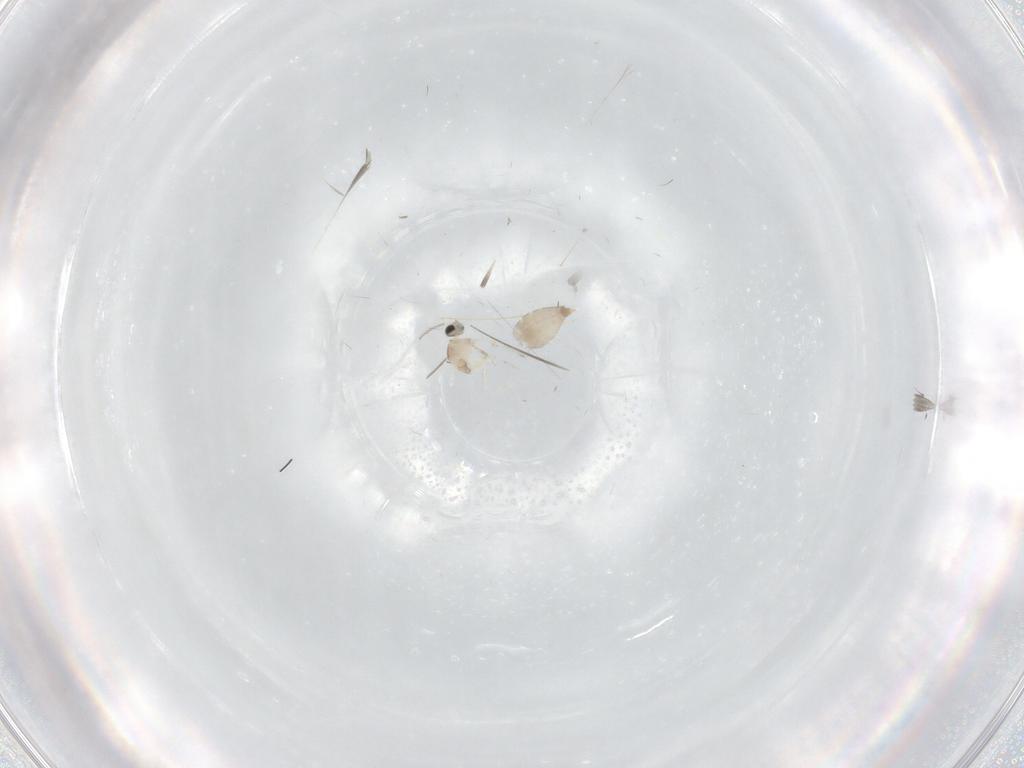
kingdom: Animalia
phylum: Arthropoda
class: Insecta
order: Diptera
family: Cecidomyiidae
